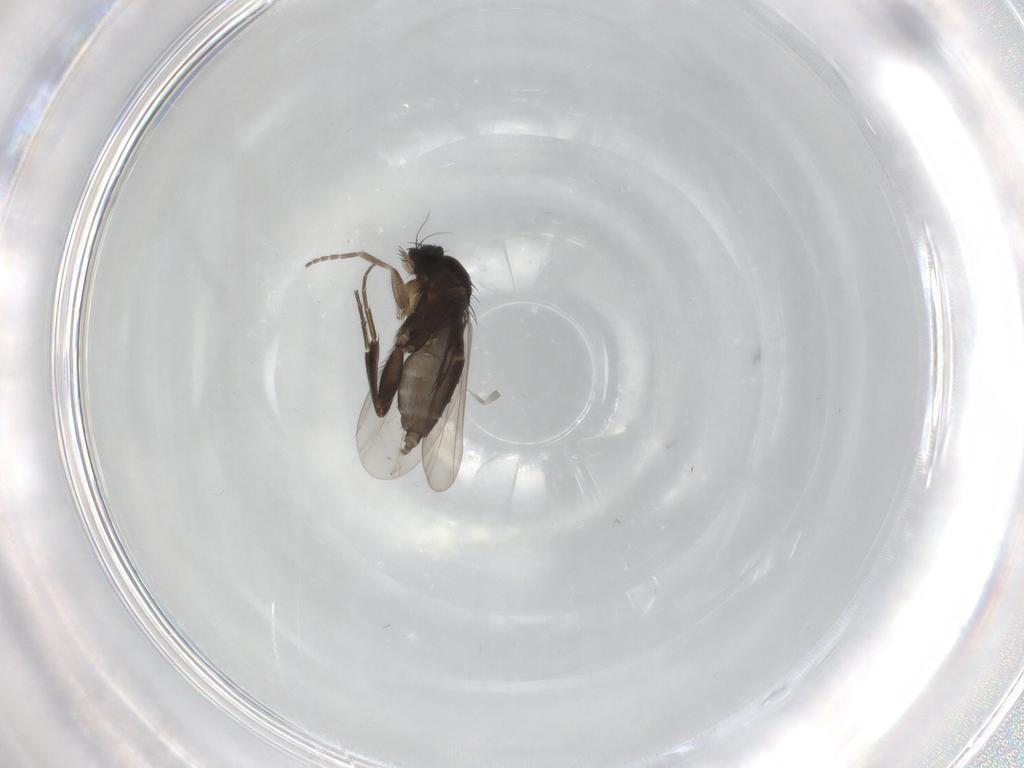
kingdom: Animalia
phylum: Arthropoda
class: Insecta
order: Diptera
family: Phoridae
